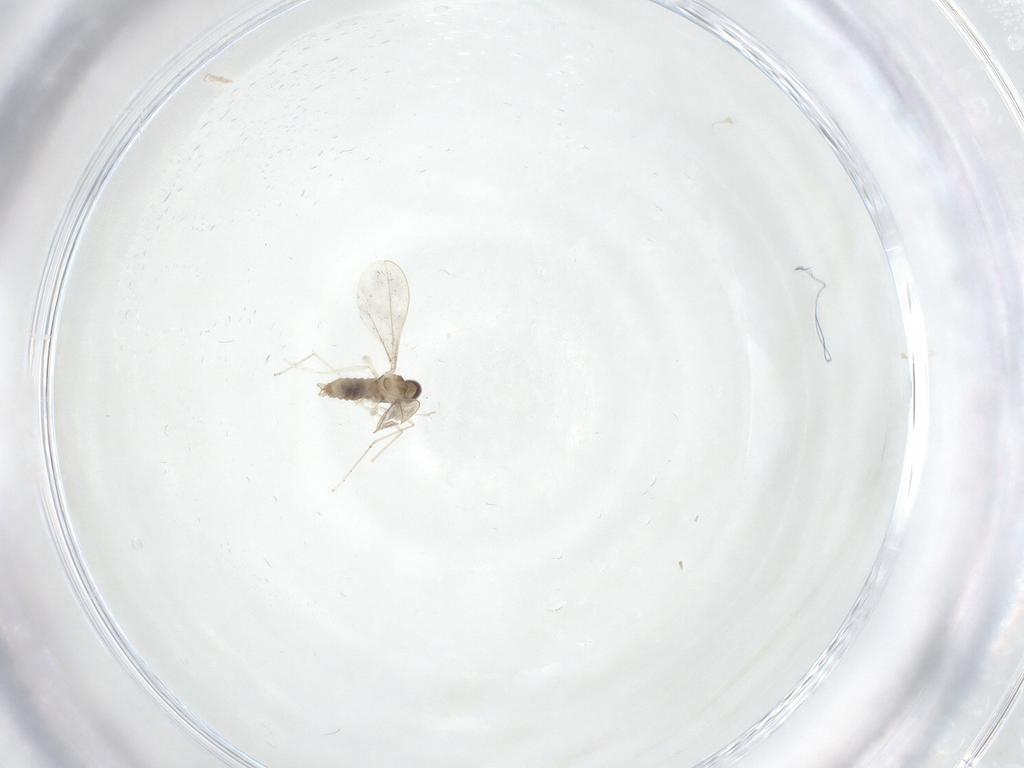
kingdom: Animalia
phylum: Arthropoda
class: Insecta
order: Diptera
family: Cecidomyiidae
